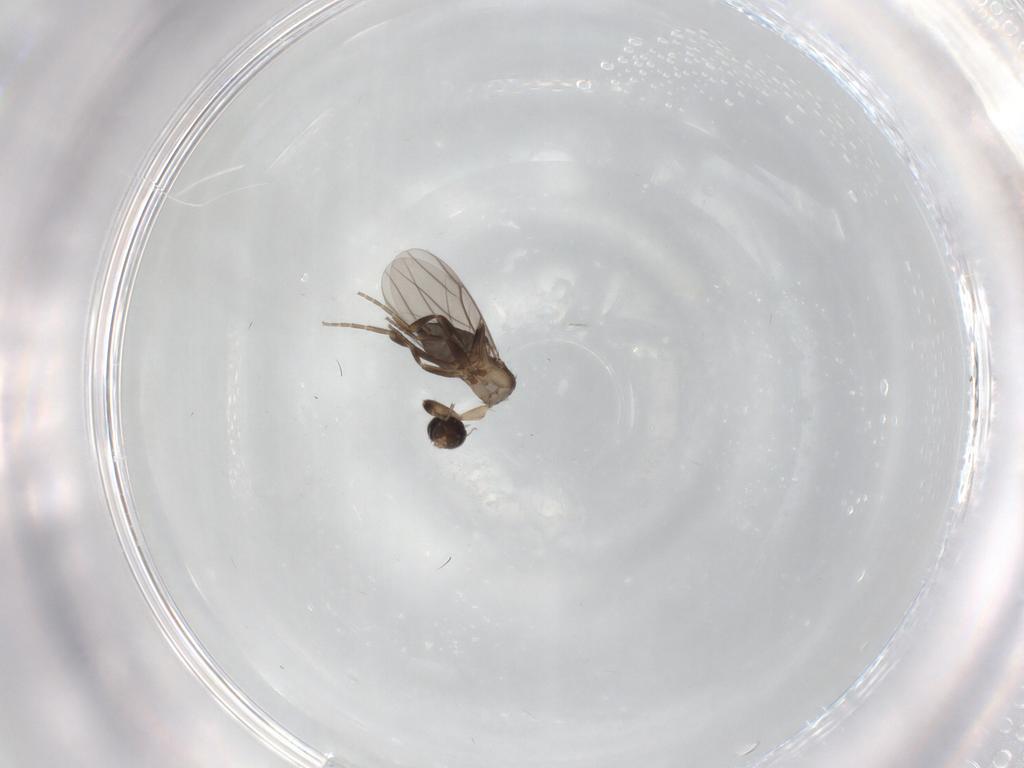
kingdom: Animalia
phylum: Arthropoda
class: Insecta
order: Diptera
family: Phoridae
